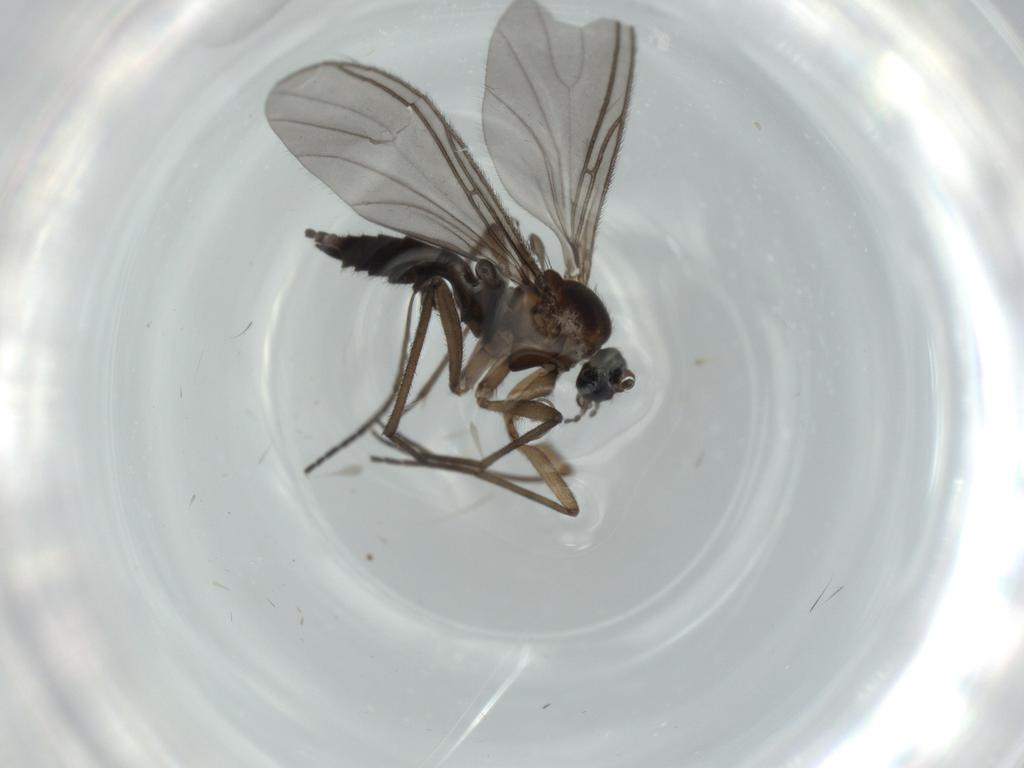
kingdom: Animalia
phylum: Arthropoda
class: Insecta
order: Diptera
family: Sciaridae
